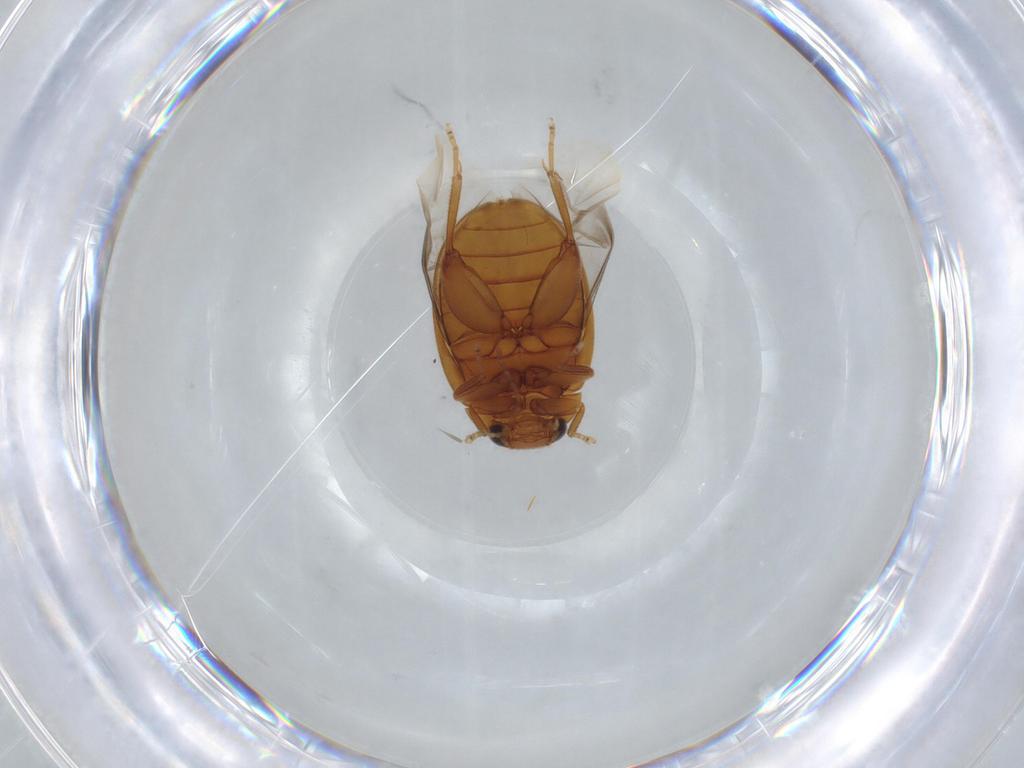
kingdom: Animalia
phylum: Arthropoda
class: Insecta
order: Coleoptera
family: Scirtidae
